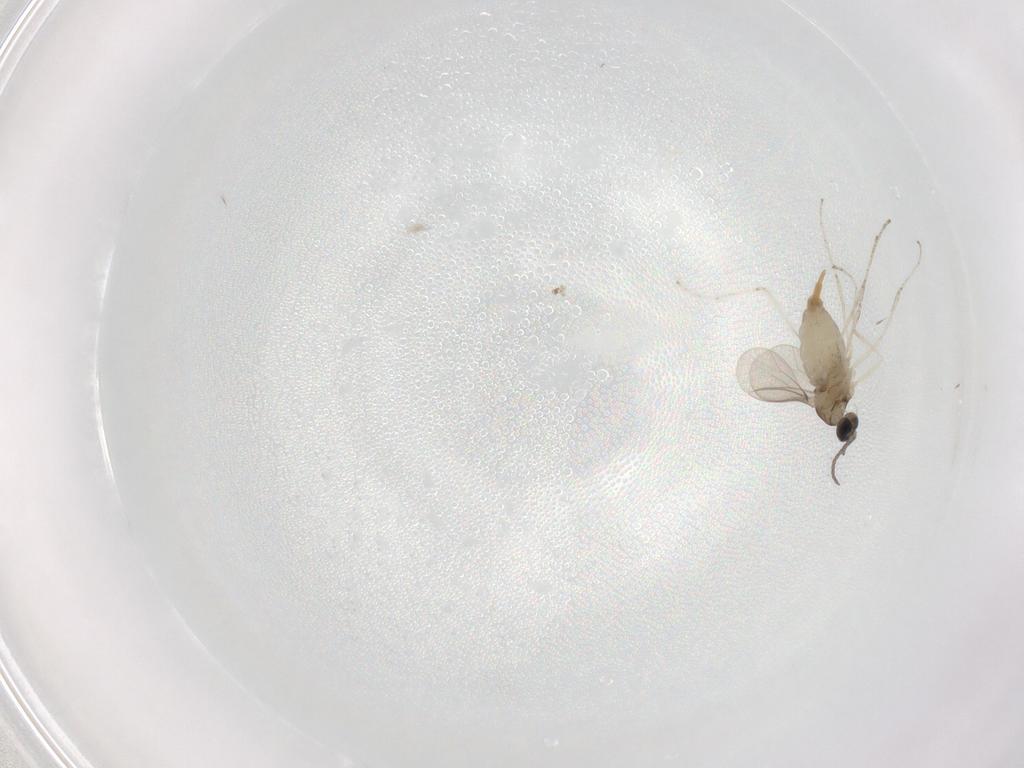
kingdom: Animalia
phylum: Arthropoda
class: Insecta
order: Diptera
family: Cecidomyiidae
